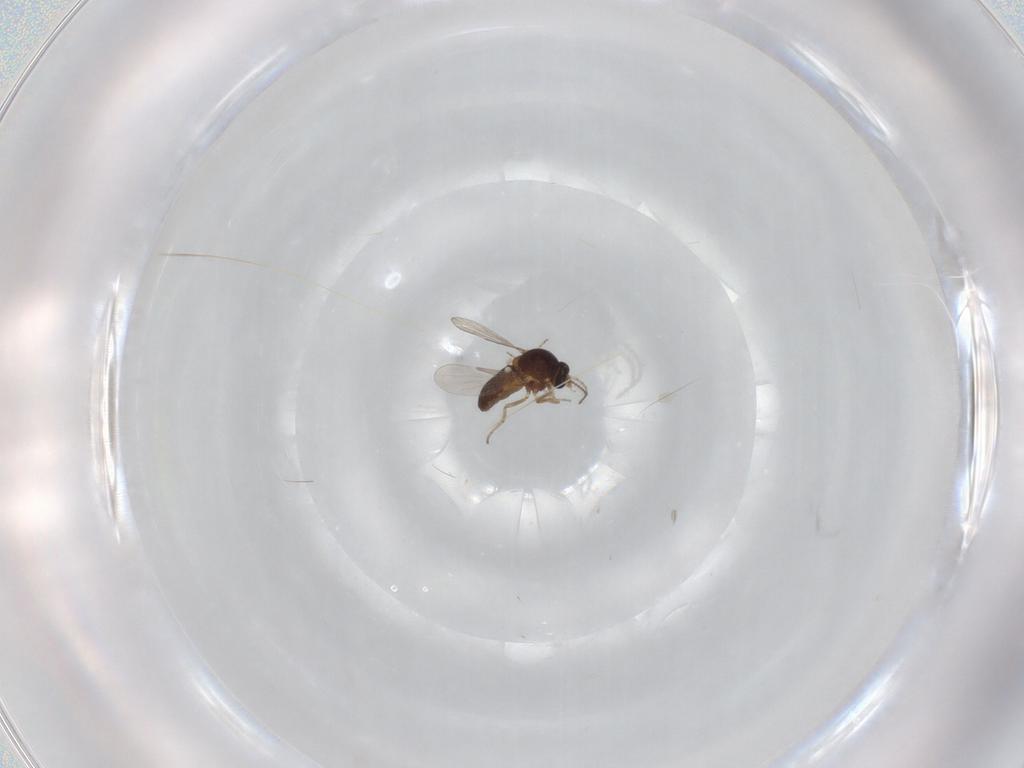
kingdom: Animalia
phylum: Arthropoda
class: Insecta
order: Diptera
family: Ceratopogonidae
